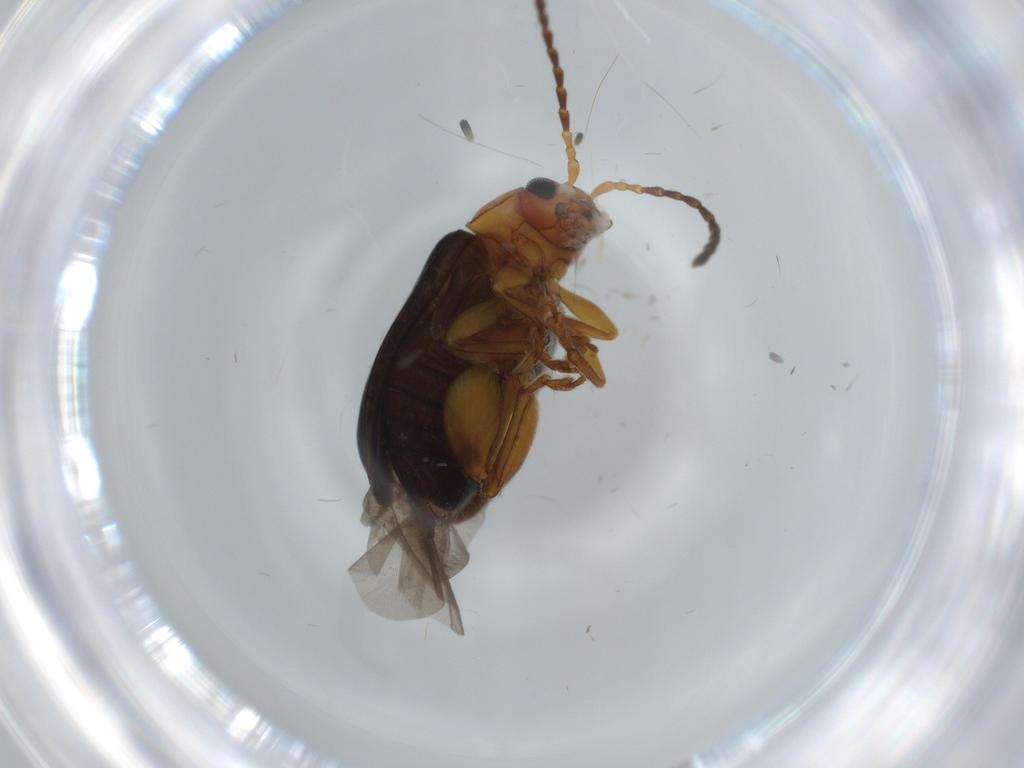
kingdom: Animalia
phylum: Arthropoda
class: Insecta
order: Coleoptera
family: Chrysomelidae
